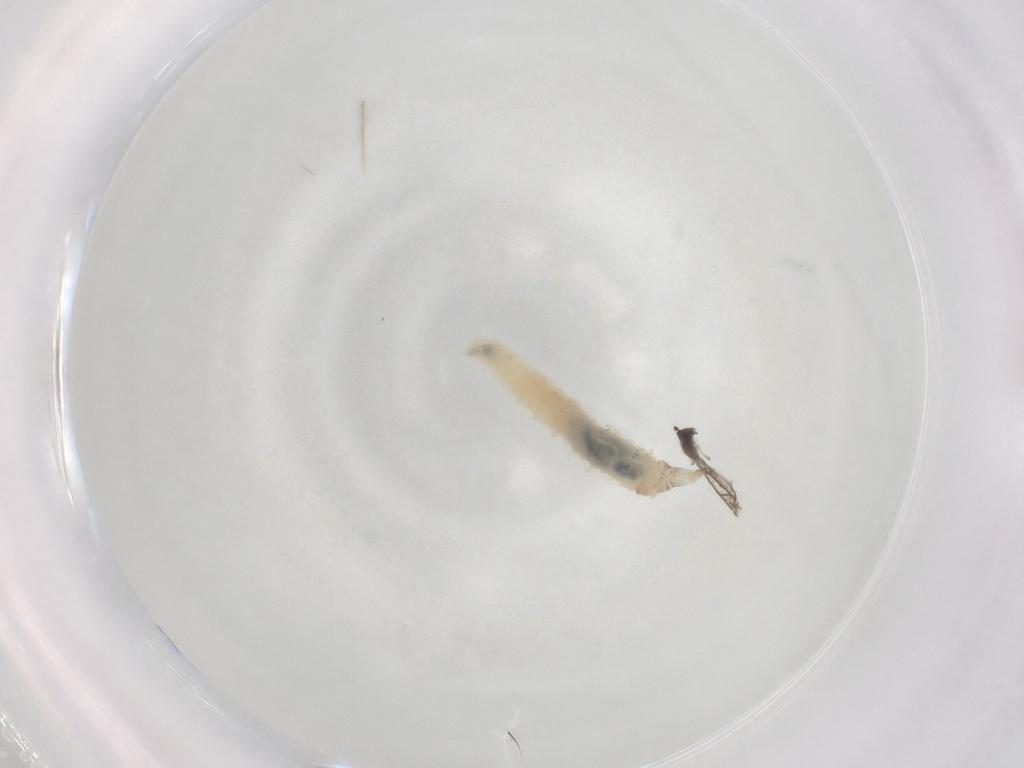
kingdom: Animalia
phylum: Arthropoda
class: Insecta
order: Diptera
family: Cecidomyiidae
